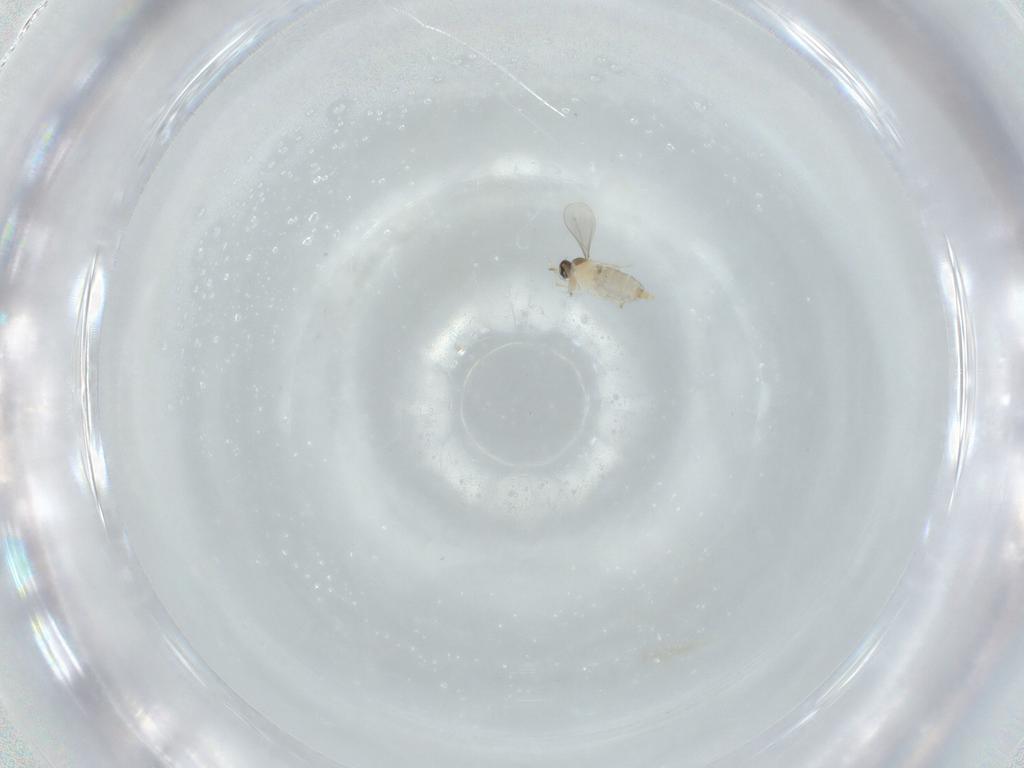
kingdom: Animalia
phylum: Arthropoda
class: Insecta
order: Diptera
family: Cecidomyiidae
